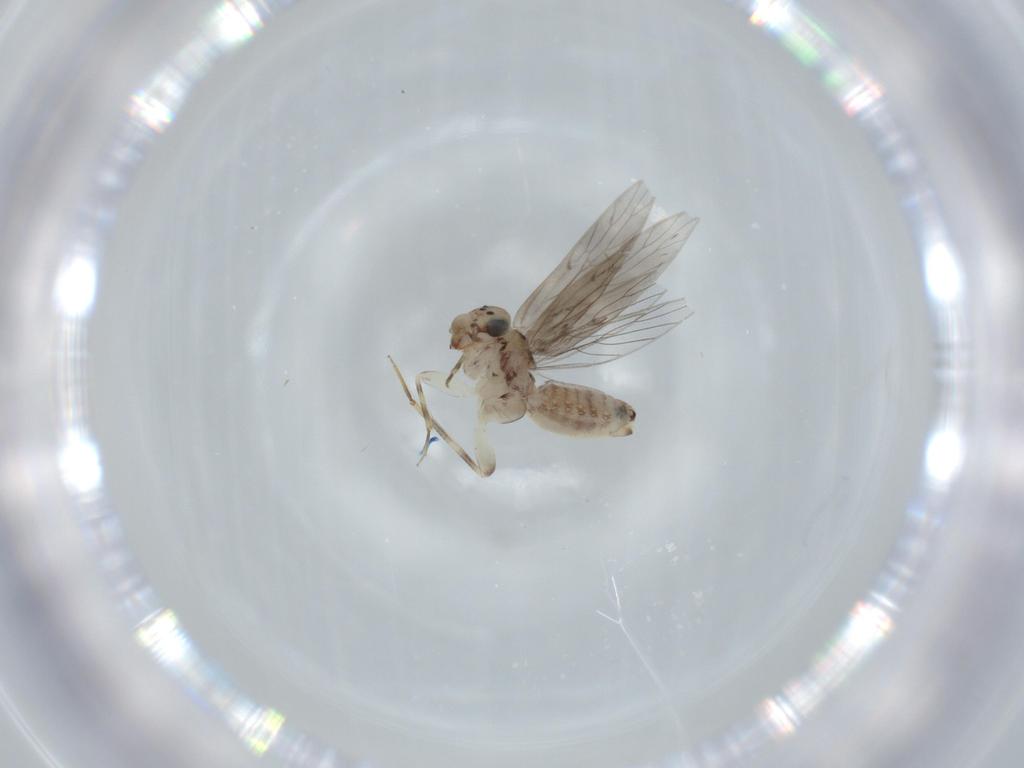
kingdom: Animalia
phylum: Arthropoda
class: Insecta
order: Psocodea
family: Lepidopsocidae
